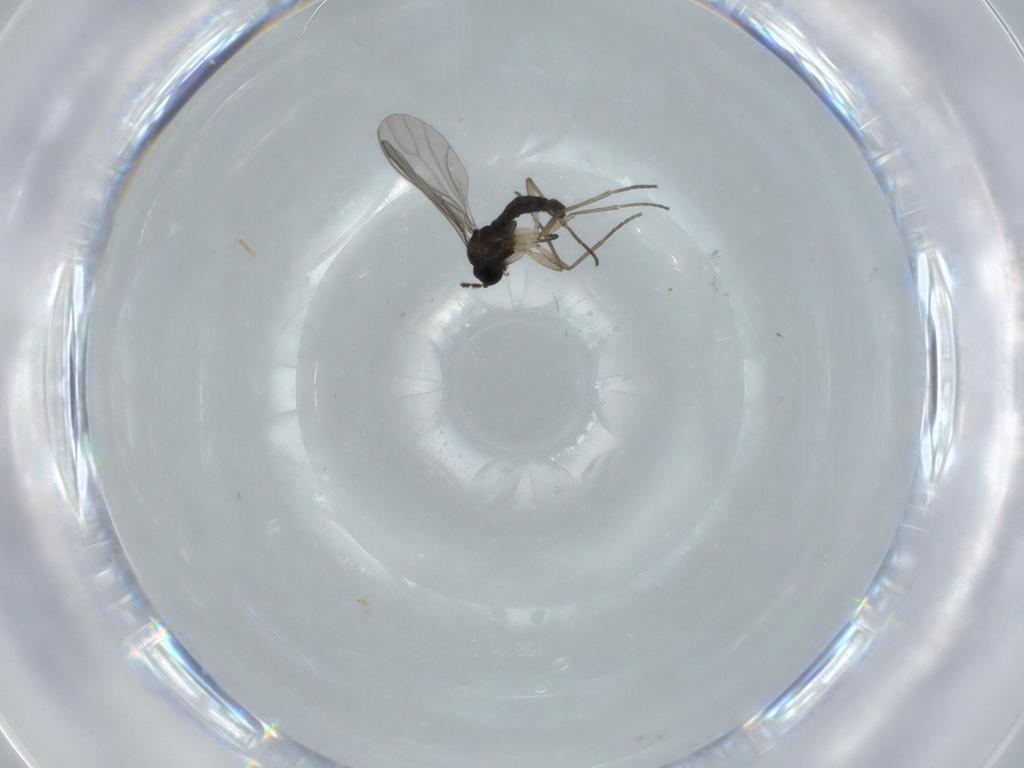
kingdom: Animalia
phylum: Arthropoda
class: Insecta
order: Diptera
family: Sciaridae
